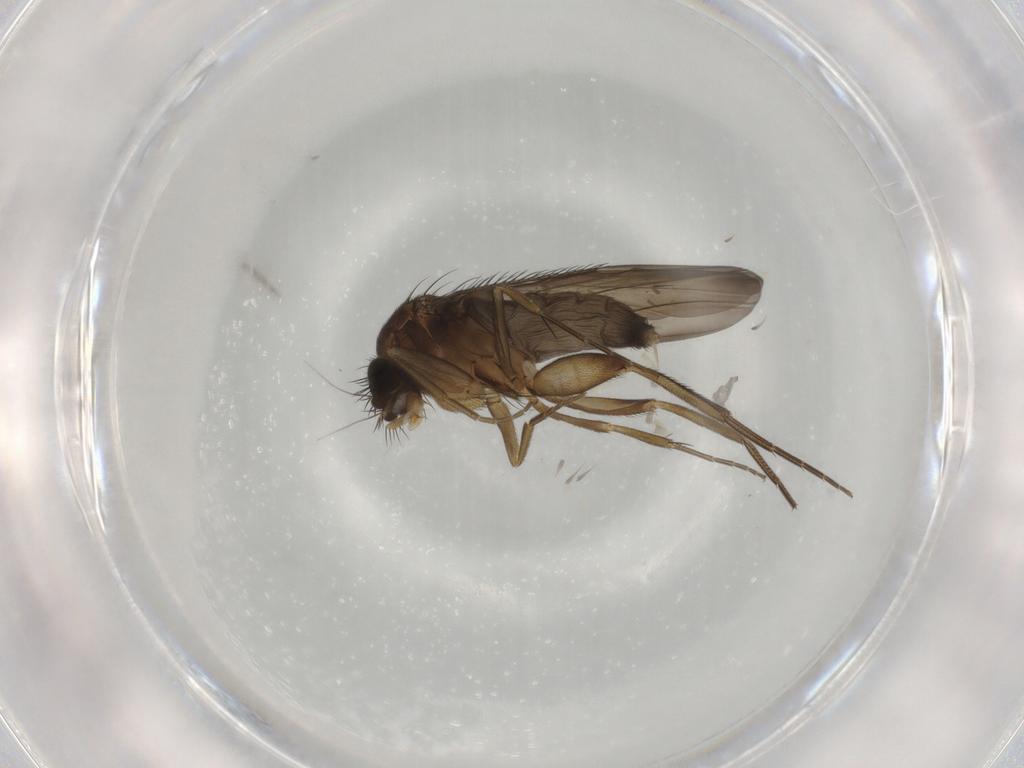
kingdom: Animalia
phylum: Arthropoda
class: Insecta
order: Diptera
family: Phoridae
